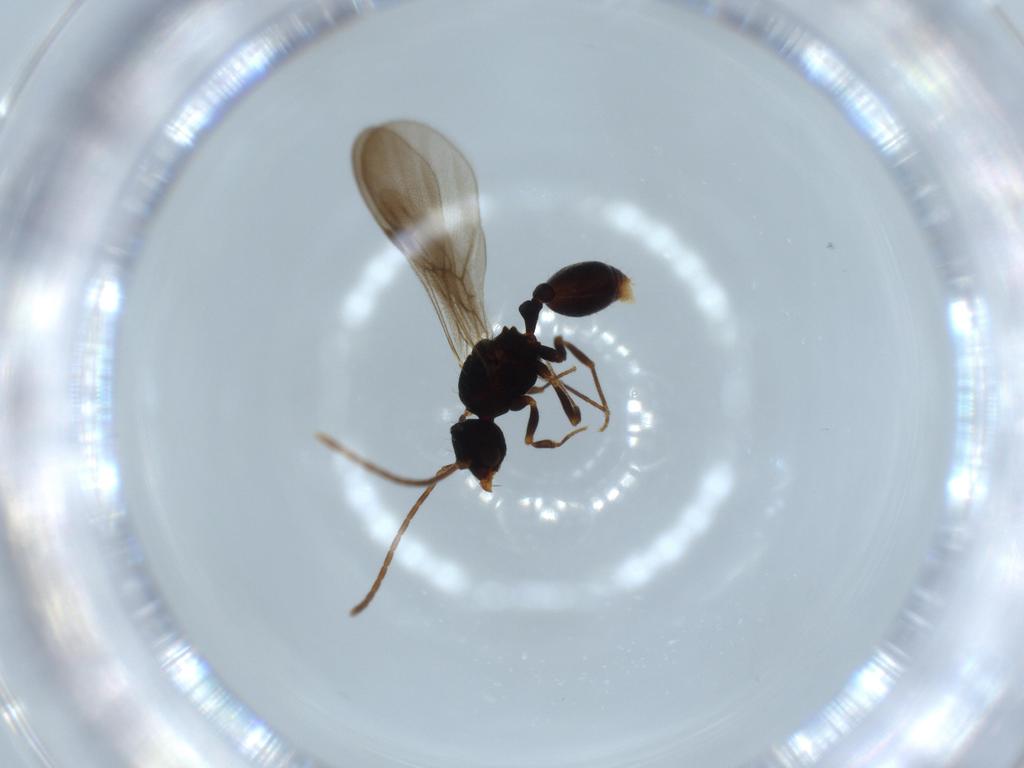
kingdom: Animalia
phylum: Arthropoda
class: Insecta
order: Hymenoptera
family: Formicidae
